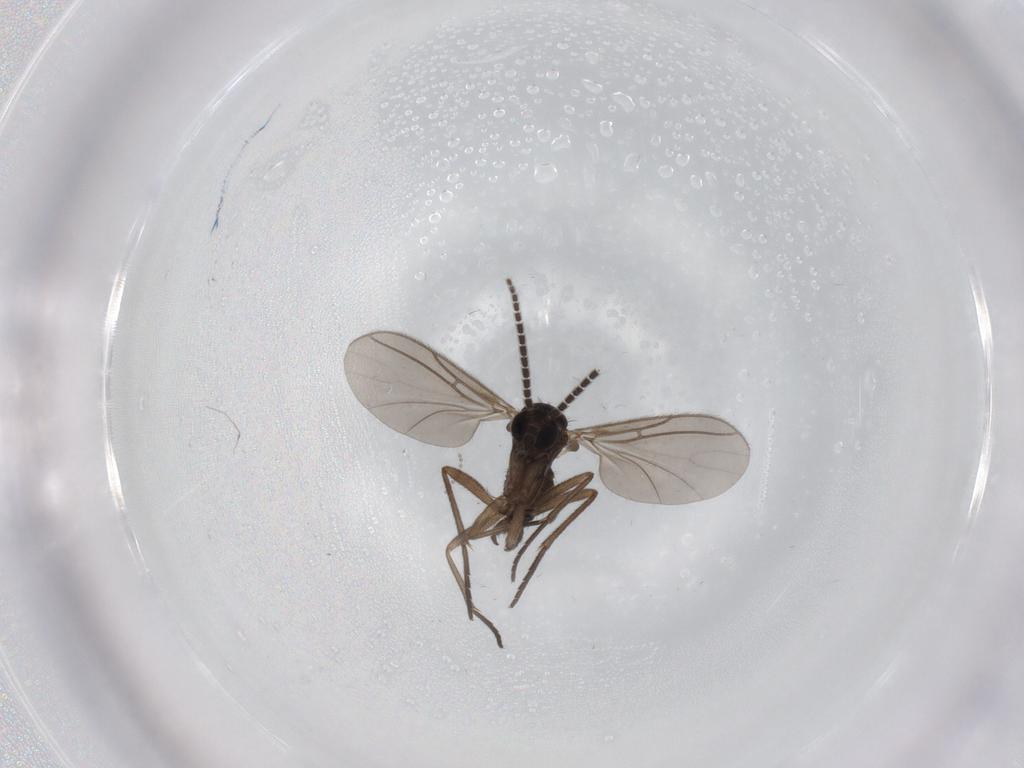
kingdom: Animalia
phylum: Arthropoda
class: Insecta
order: Diptera
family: Sciaridae
